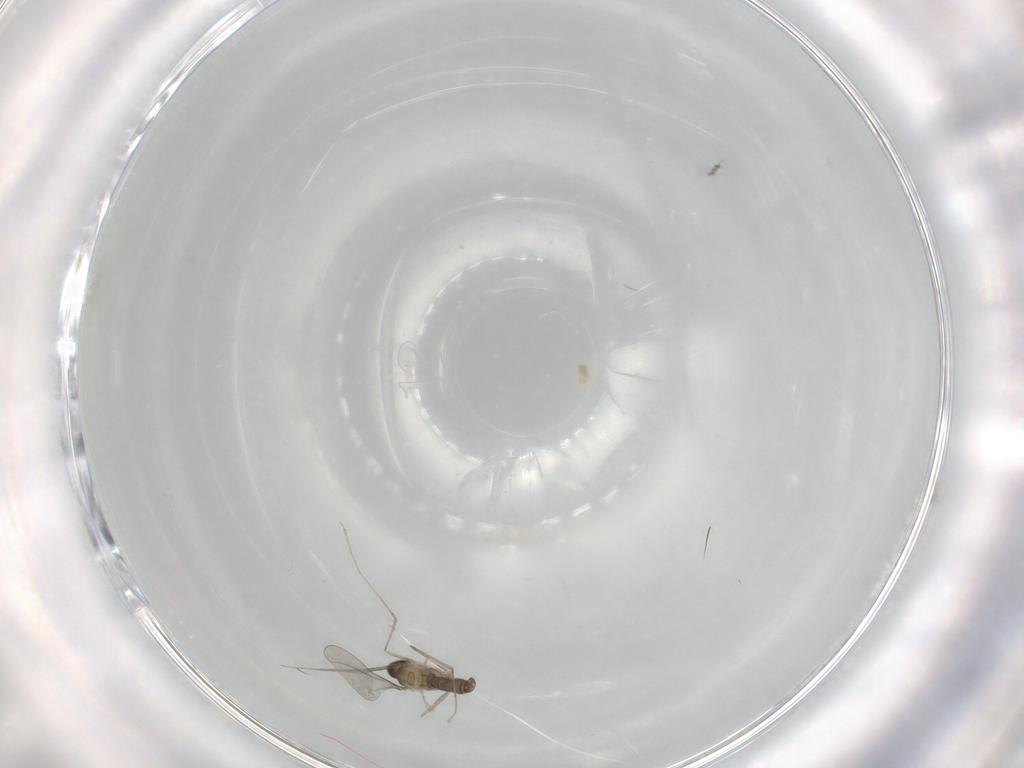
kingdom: Animalia
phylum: Arthropoda
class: Insecta
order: Diptera
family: Cecidomyiidae
